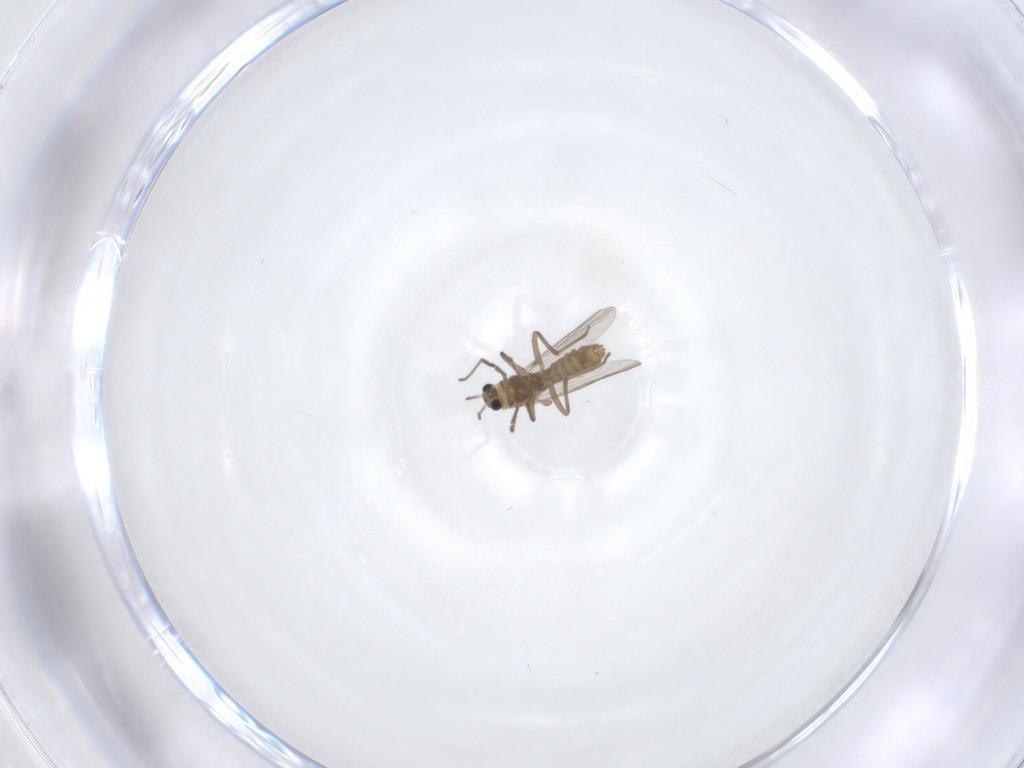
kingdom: Animalia
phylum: Arthropoda
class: Insecta
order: Diptera
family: Chironomidae
